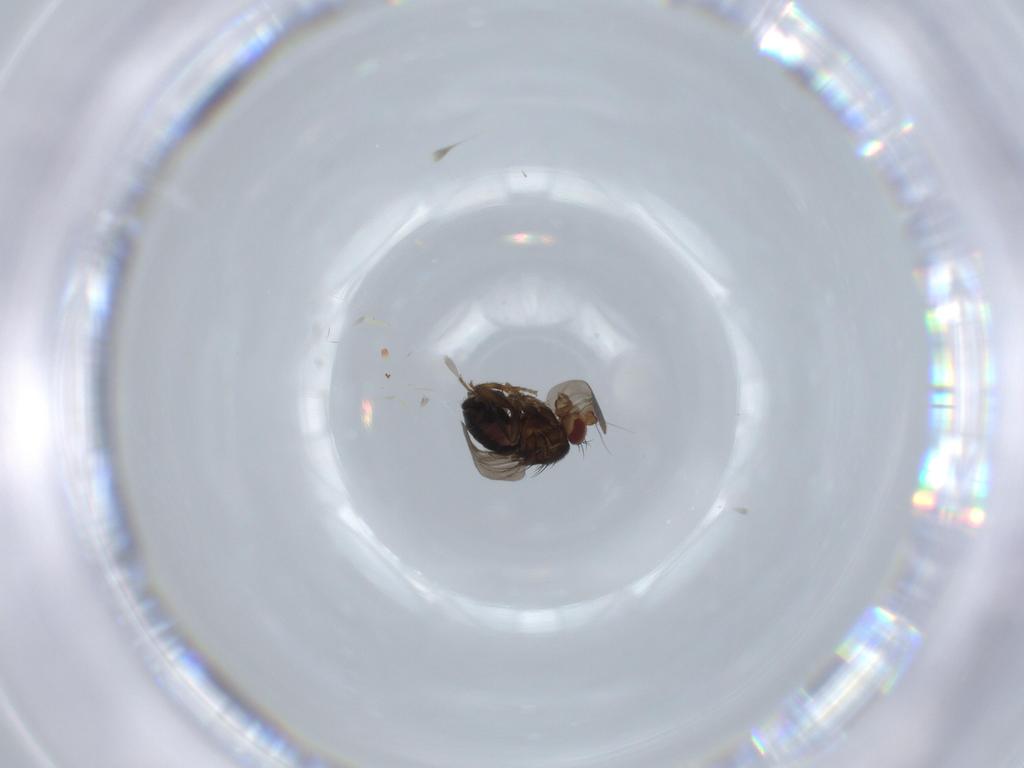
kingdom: Animalia
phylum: Arthropoda
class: Insecta
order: Diptera
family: Sphaeroceridae
